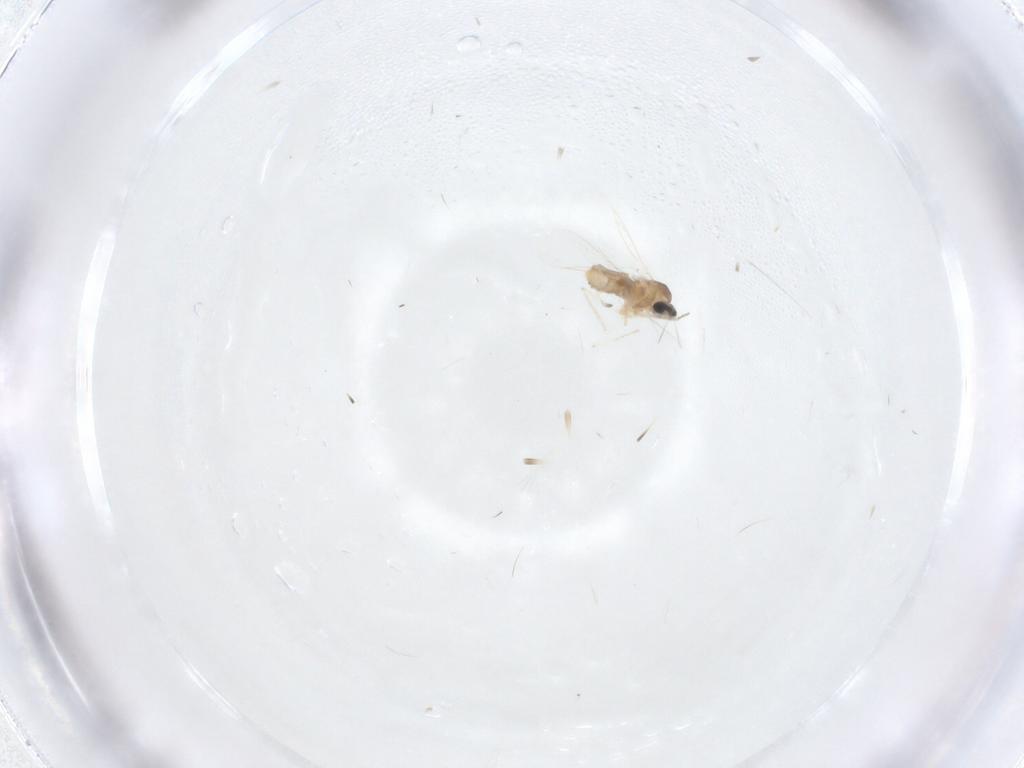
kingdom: Animalia
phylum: Arthropoda
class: Insecta
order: Diptera
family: Cecidomyiidae
